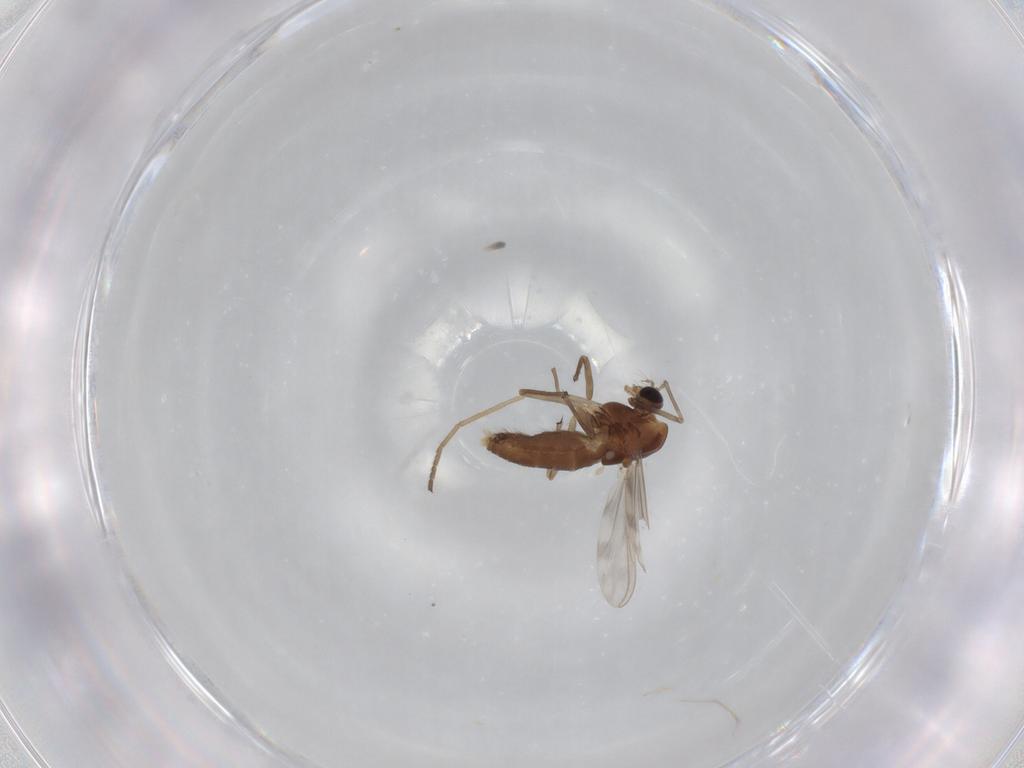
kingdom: Animalia
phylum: Arthropoda
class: Insecta
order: Diptera
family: Chironomidae
